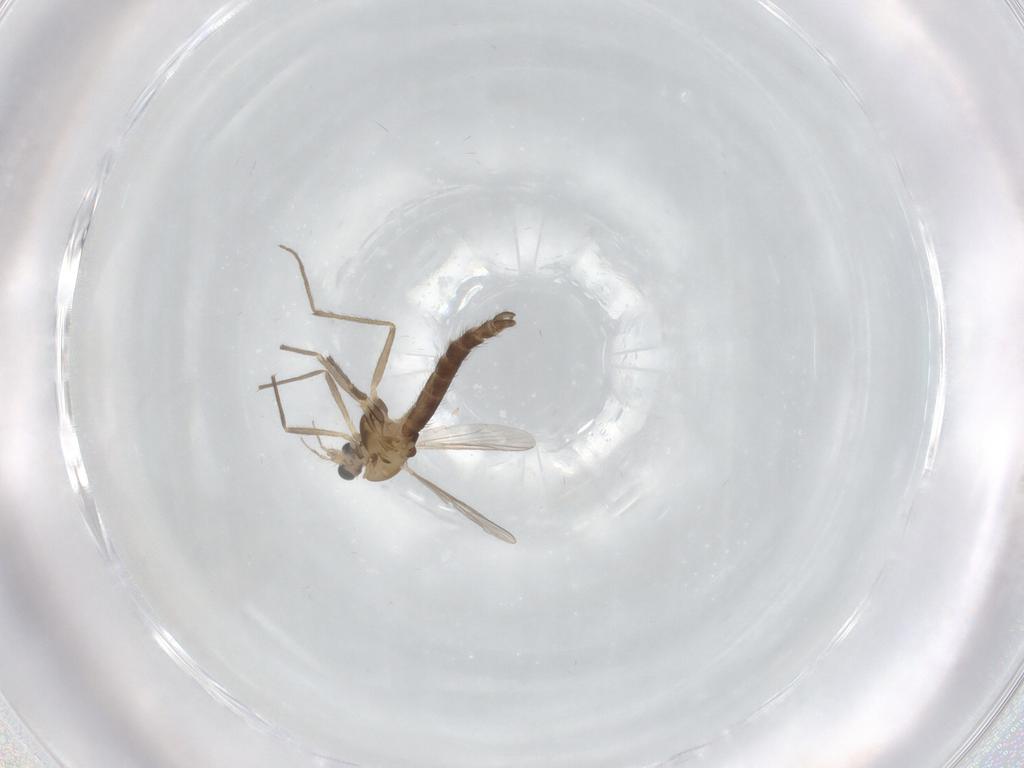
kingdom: Animalia
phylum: Arthropoda
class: Insecta
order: Diptera
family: Chironomidae
